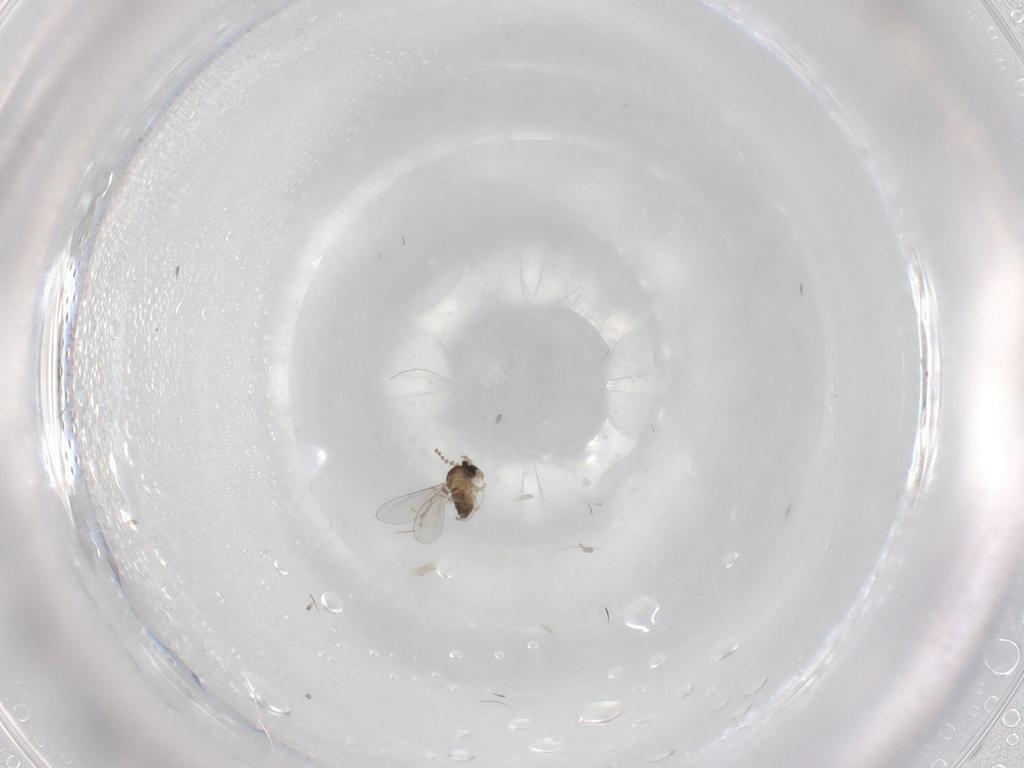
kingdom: Animalia
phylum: Arthropoda
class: Insecta
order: Diptera
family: Cecidomyiidae
